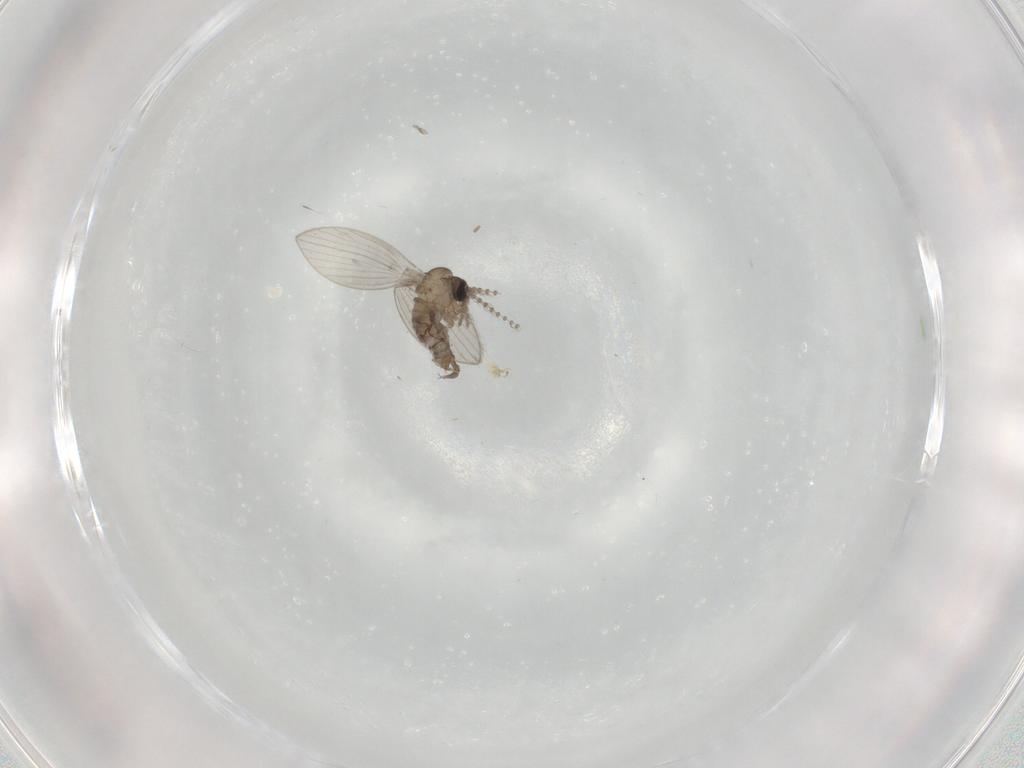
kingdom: Animalia
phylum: Arthropoda
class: Insecta
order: Diptera
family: Psychodidae
